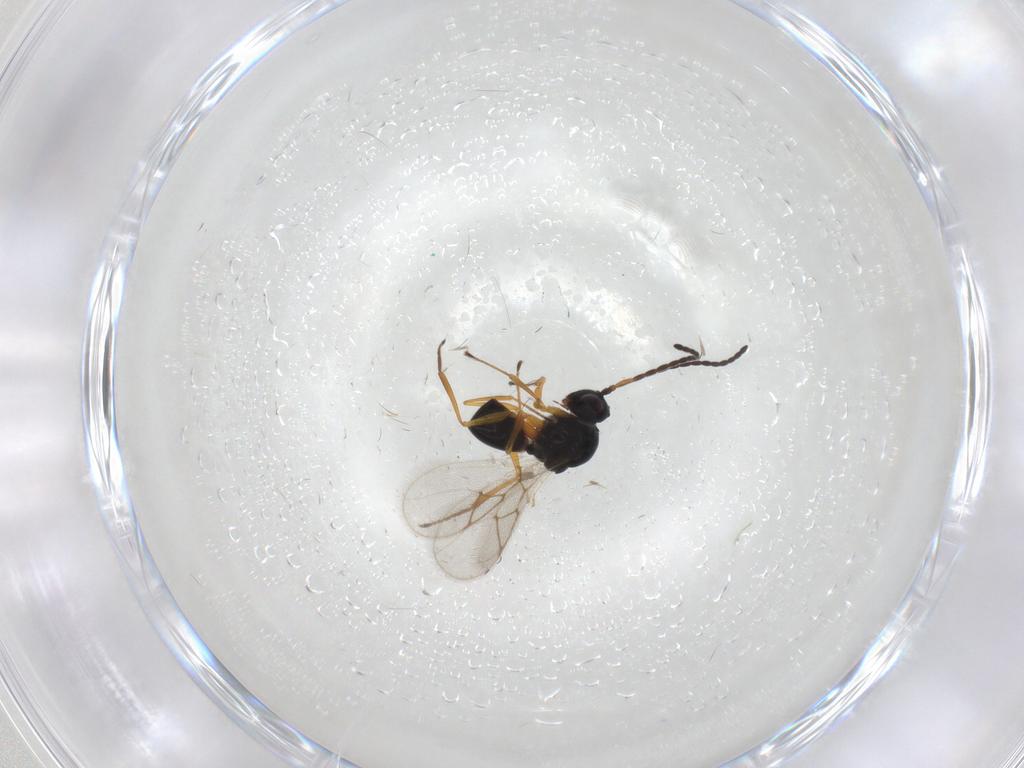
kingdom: Animalia
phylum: Arthropoda
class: Insecta
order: Hymenoptera
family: Figitidae
